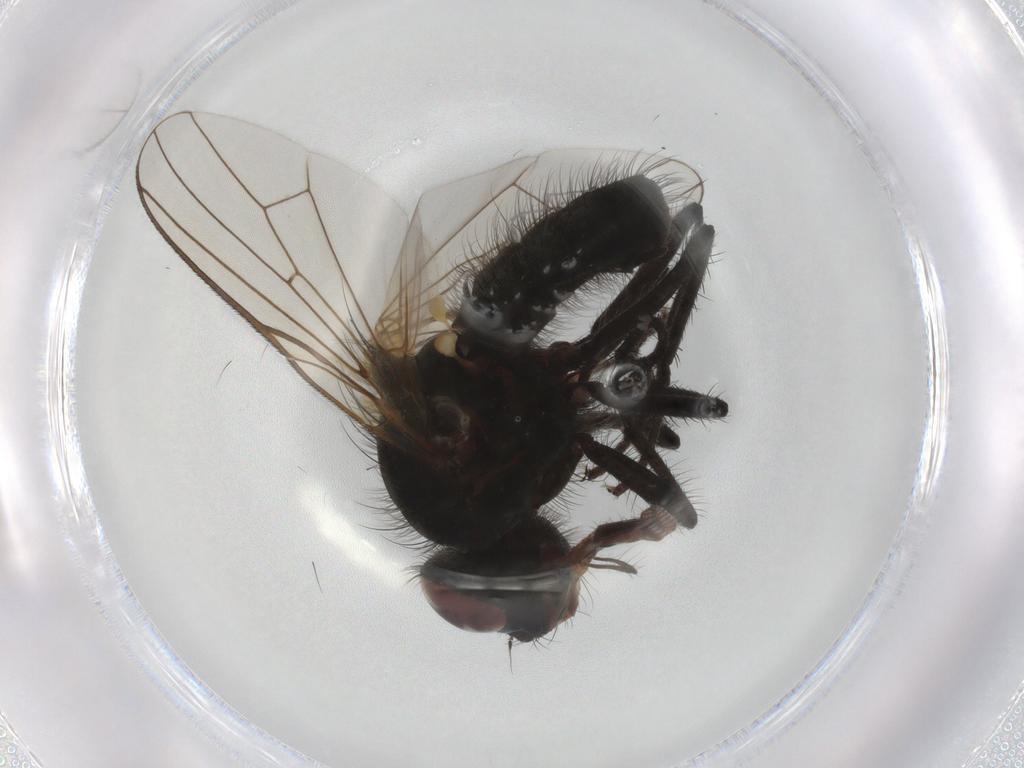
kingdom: Animalia
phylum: Arthropoda
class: Insecta
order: Diptera
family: Anthomyiidae
